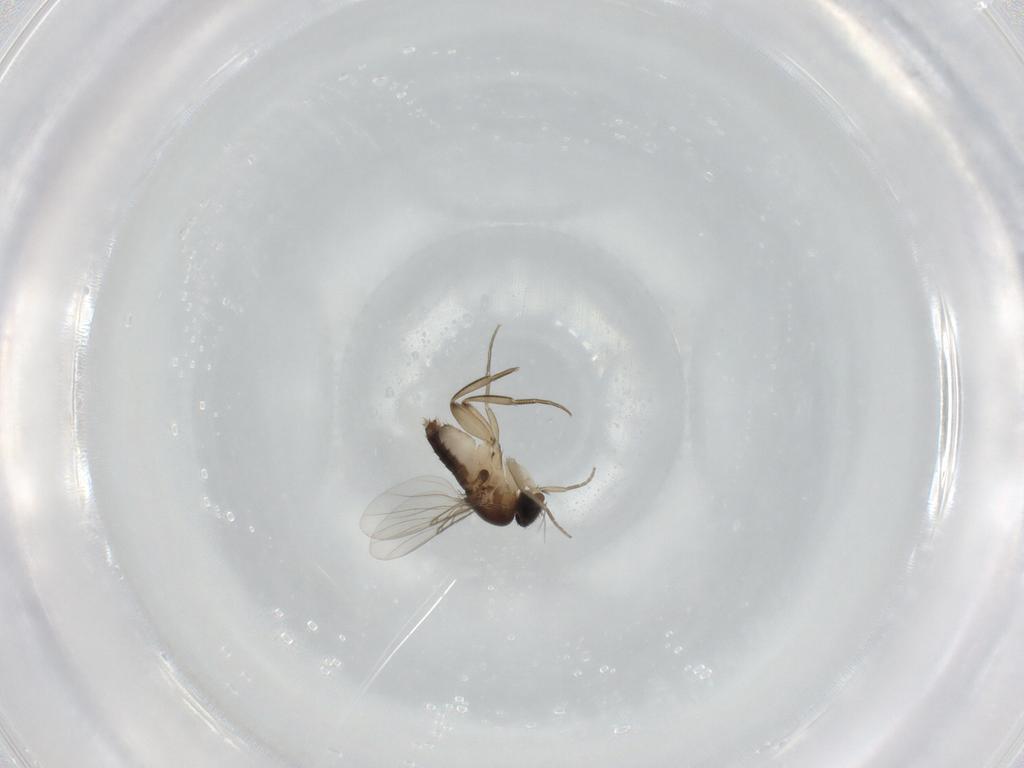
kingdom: Animalia
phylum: Arthropoda
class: Insecta
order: Diptera
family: Phoridae
